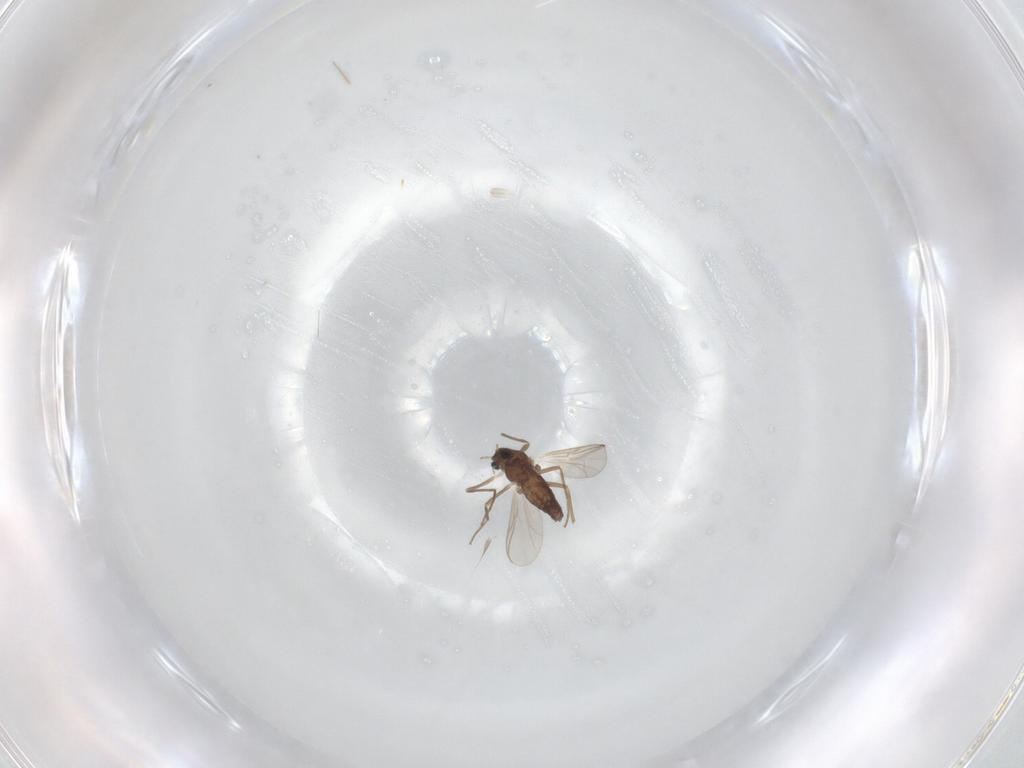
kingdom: Animalia
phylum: Arthropoda
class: Insecta
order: Diptera
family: Chironomidae
